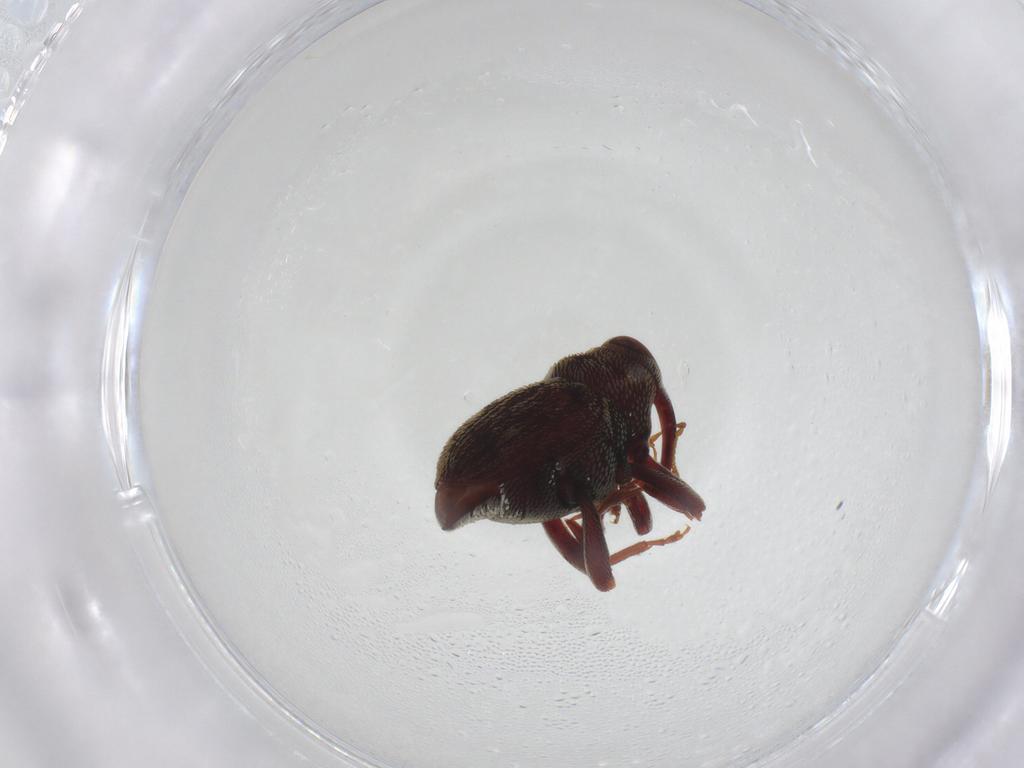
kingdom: Animalia
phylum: Arthropoda
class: Insecta
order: Coleoptera
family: Curculionidae
